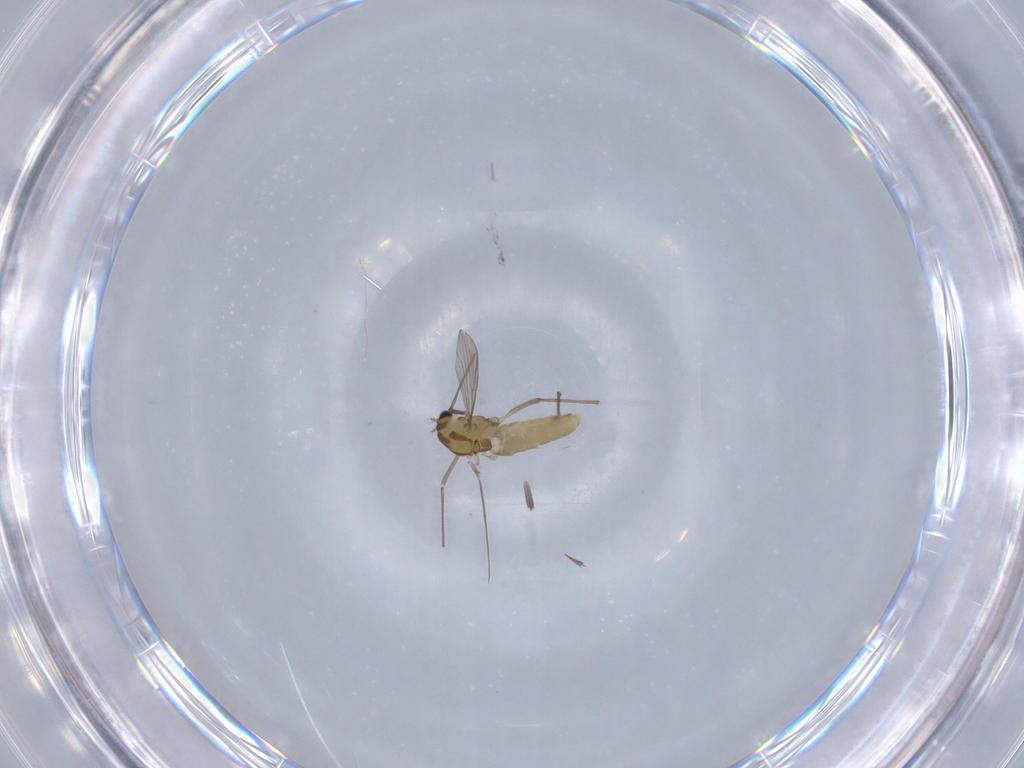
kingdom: Animalia
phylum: Arthropoda
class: Insecta
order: Diptera
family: Chironomidae
